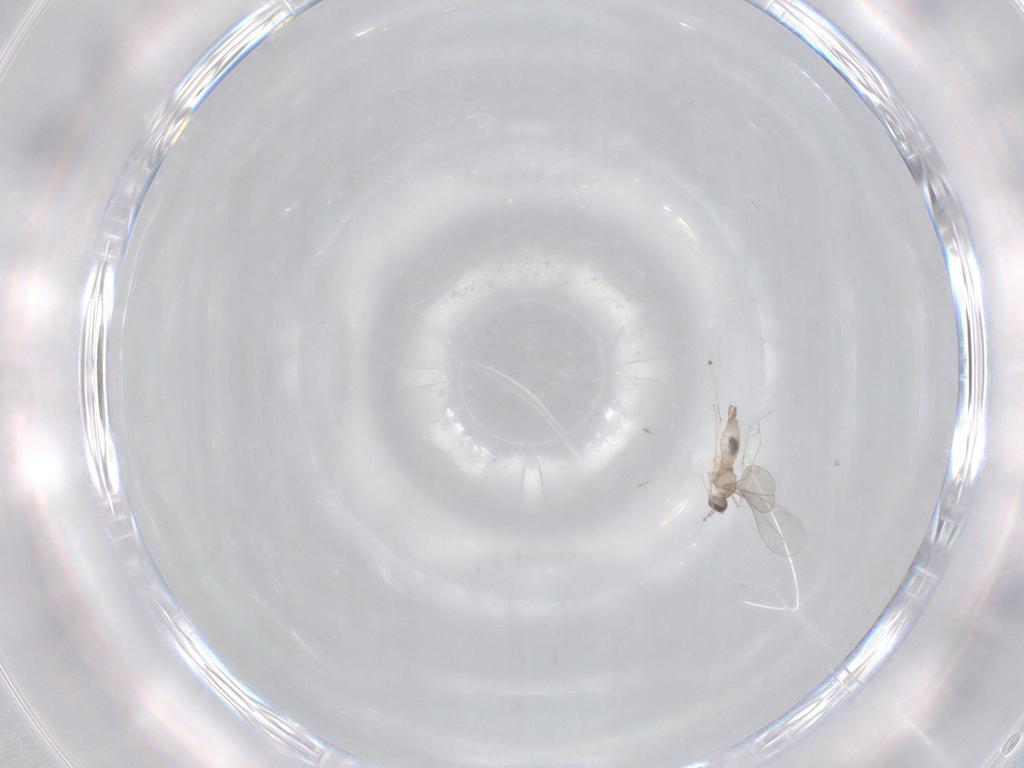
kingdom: Animalia
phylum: Arthropoda
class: Insecta
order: Diptera
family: Cecidomyiidae
